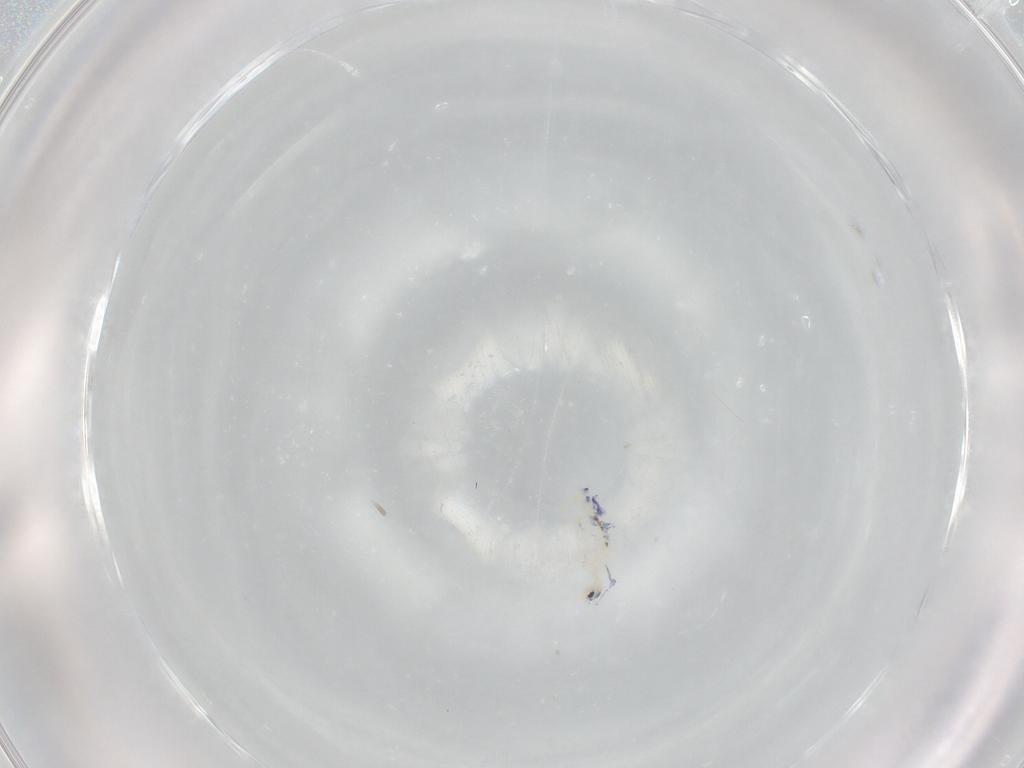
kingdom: Animalia
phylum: Arthropoda
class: Collembola
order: Entomobryomorpha
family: Entomobryidae
